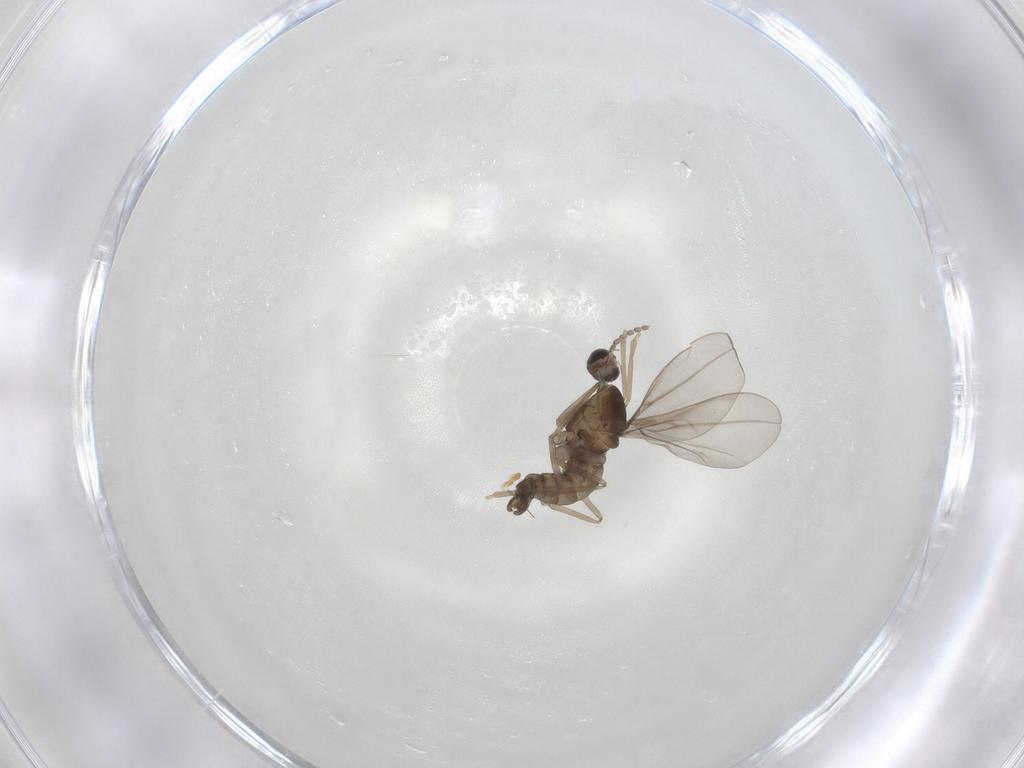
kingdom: Animalia
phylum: Arthropoda
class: Insecta
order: Diptera
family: Cecidomyiidae
